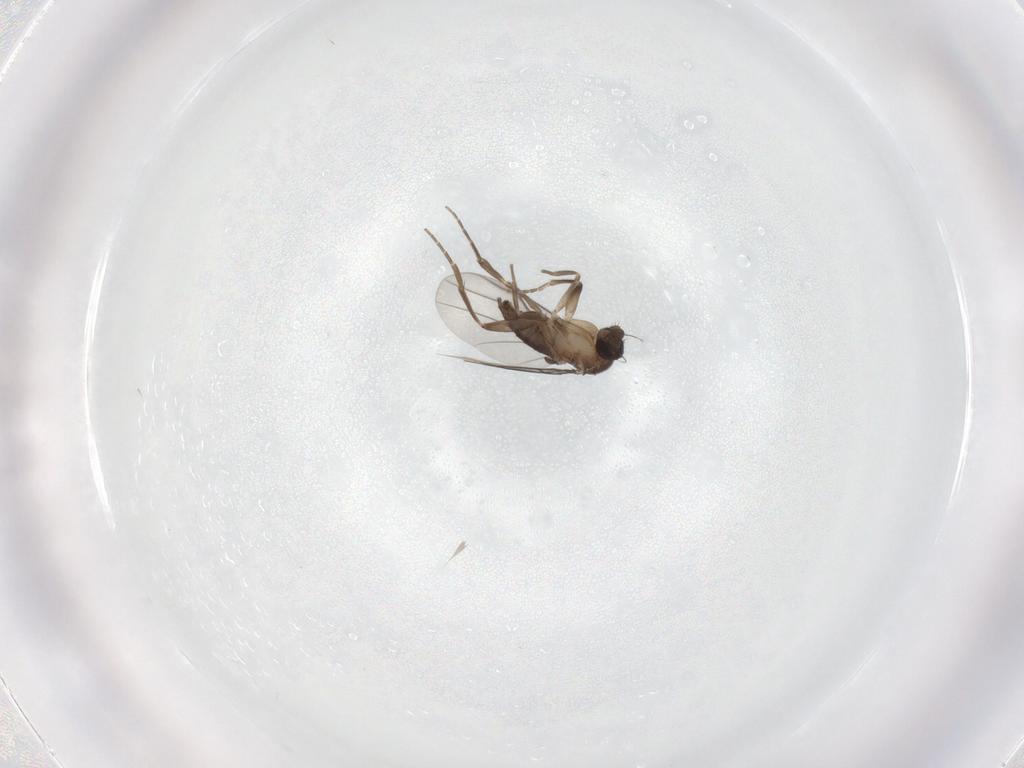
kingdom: Animalia
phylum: Arthropoda
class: Insecta
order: Diptera
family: Phoridae
